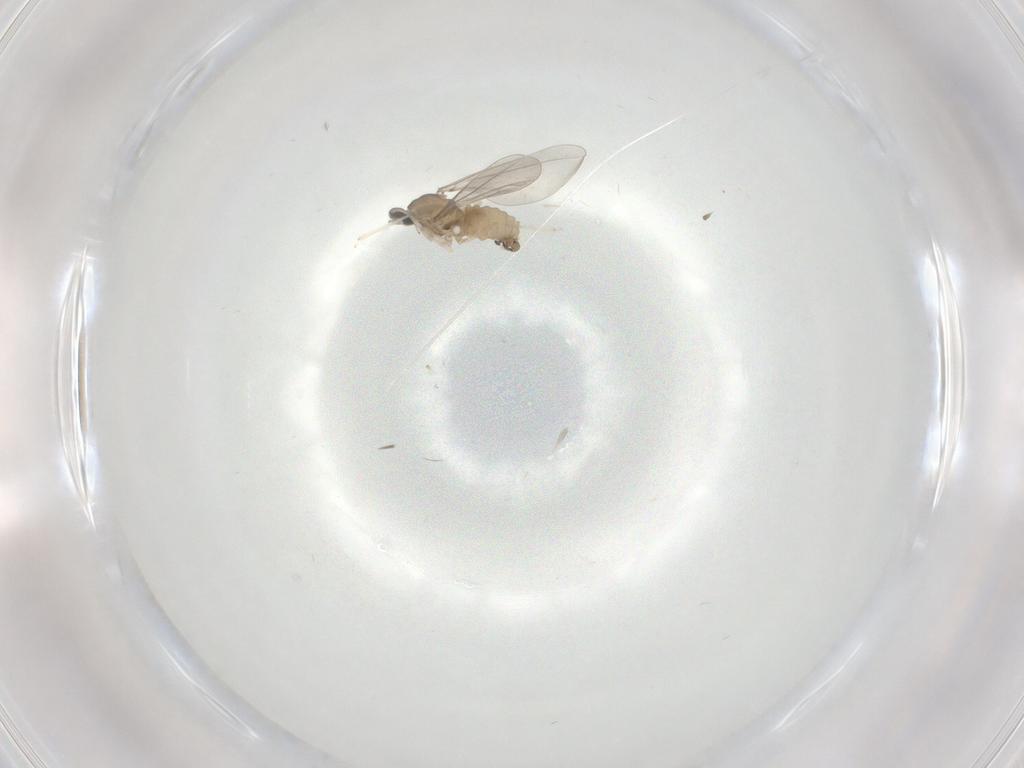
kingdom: Animalia
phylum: Arthropoda
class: Insecta
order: Diptera
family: Cecidomyiidae
